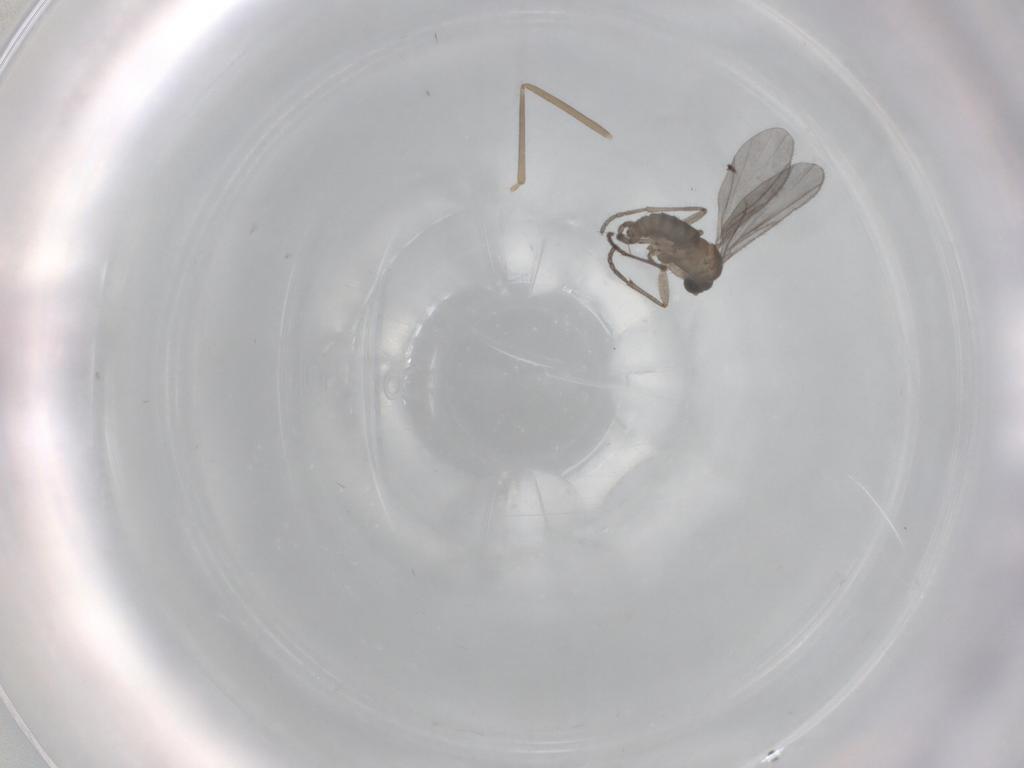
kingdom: Animalia
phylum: Arthropoda
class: Insecta
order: Diptera
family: Sciaridae
